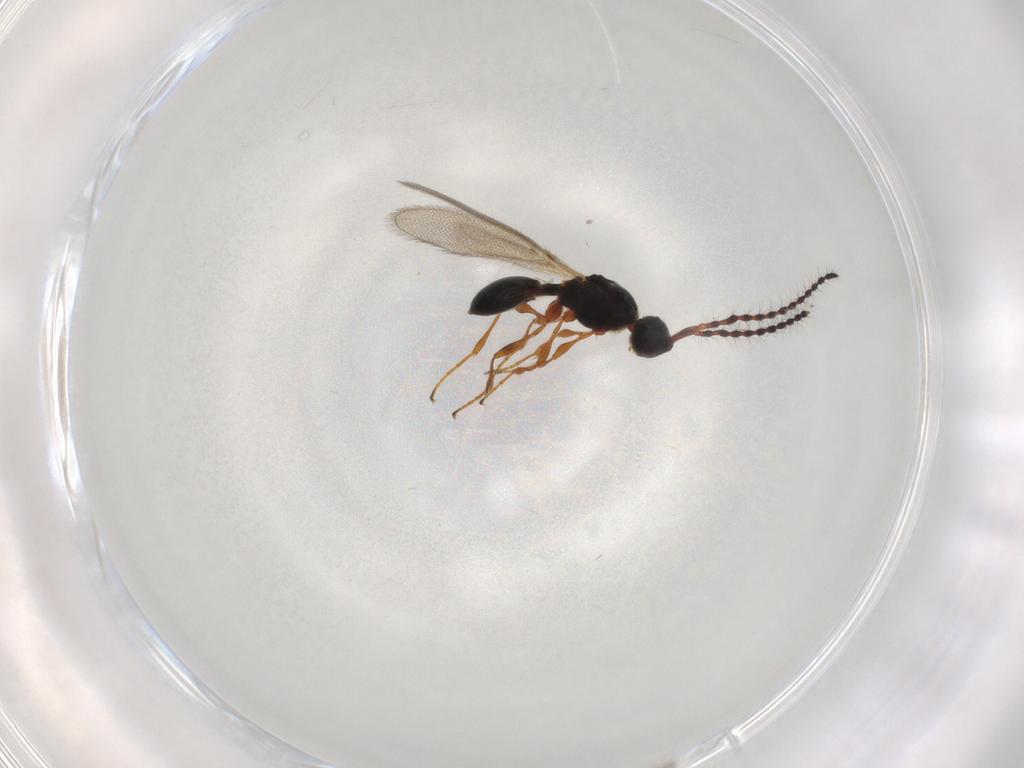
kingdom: Animalia
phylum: Arthropoda
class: Insecta
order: Hymenoptera
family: Diapriidae
